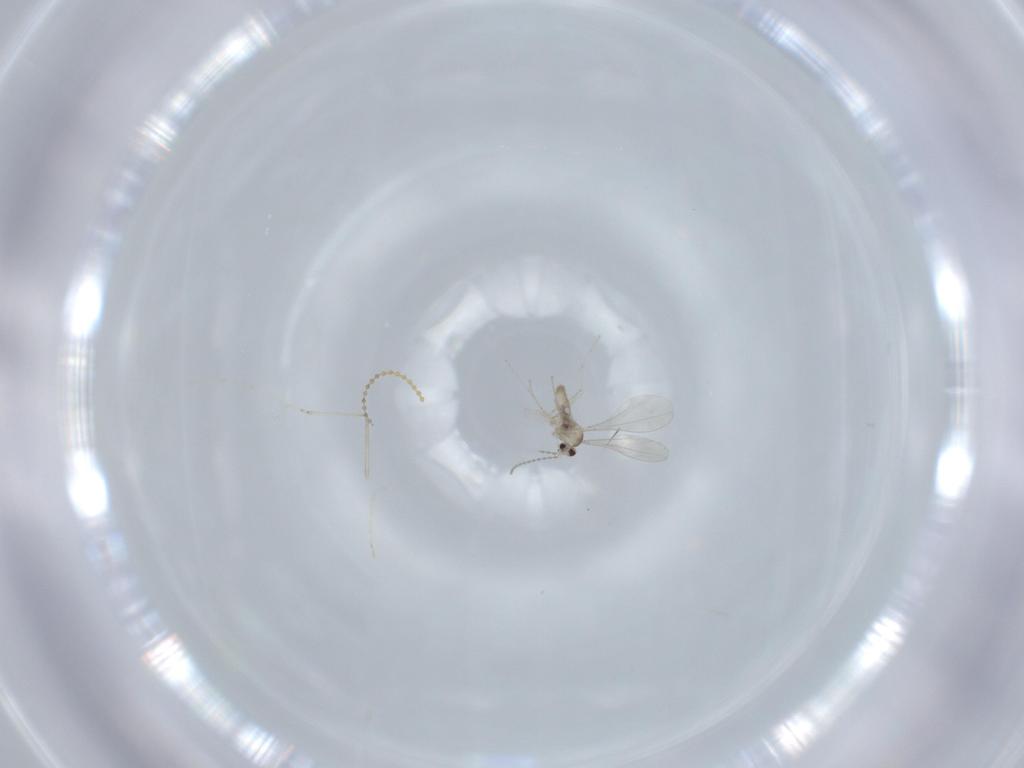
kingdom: Animalia
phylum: Arthropoda
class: Insecta
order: Diptera
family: Cecidomyiidae
